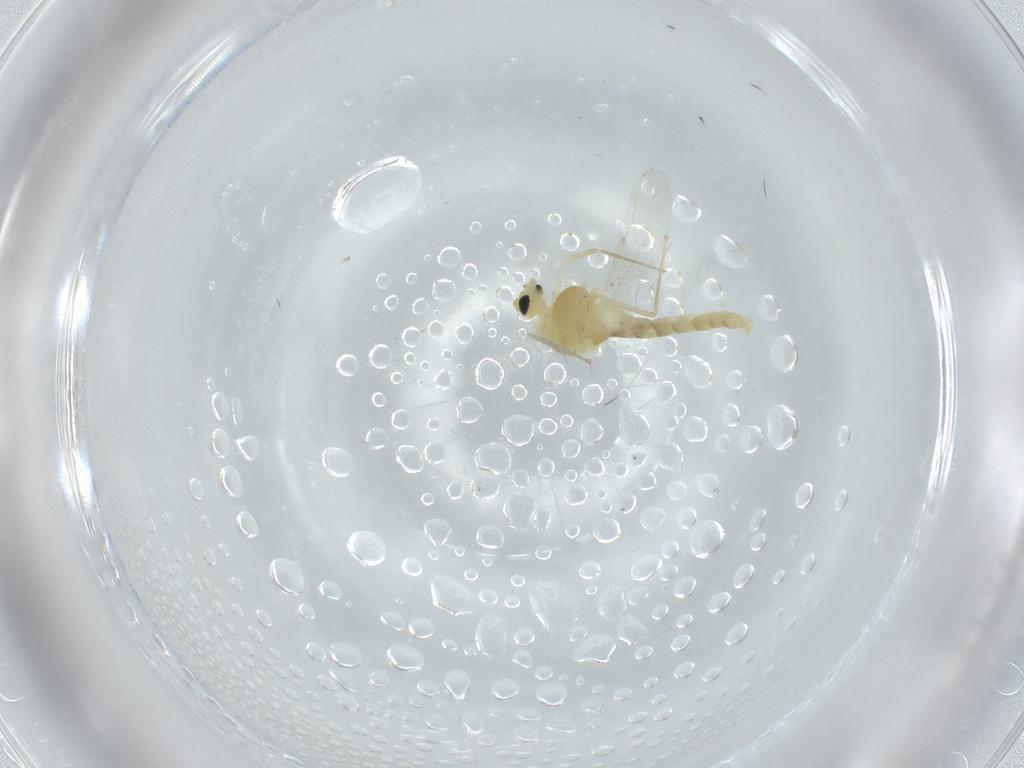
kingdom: Animalia
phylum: Arthropoda
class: Insecta
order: Diptera
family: Chironomidae
